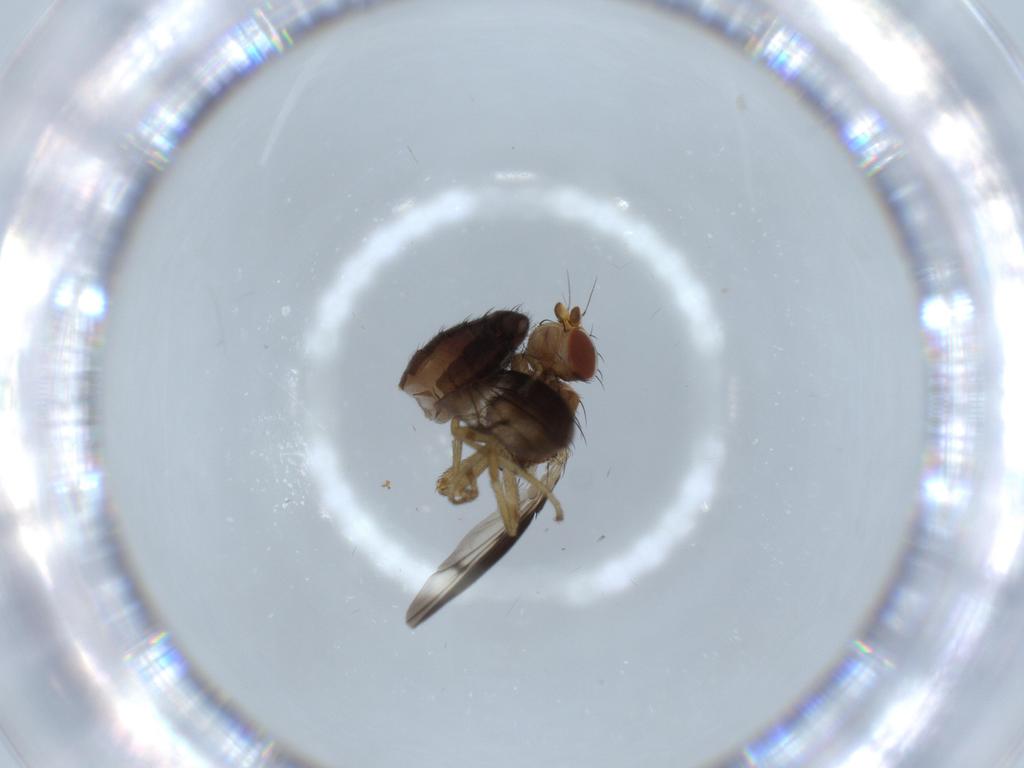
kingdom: Animalia
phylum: Arthropoda
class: Insecta
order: Diptera
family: Heleomyzidae
